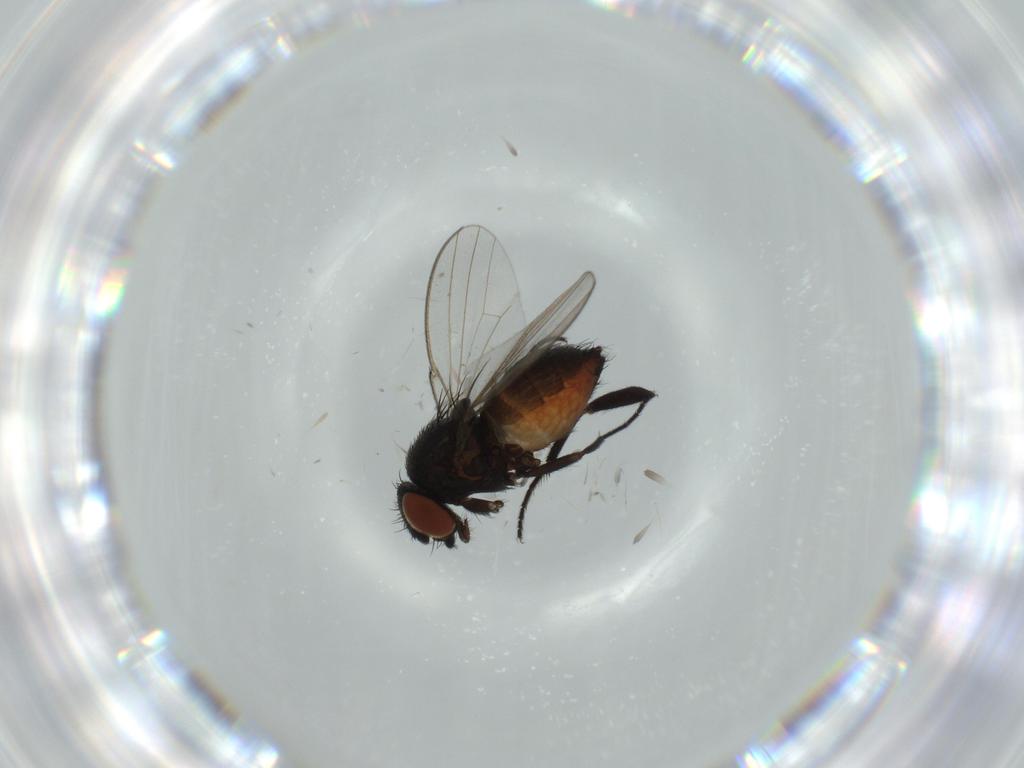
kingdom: Animalia
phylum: Arthropoda
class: Insecta
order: Diptera
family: Milichiidae
